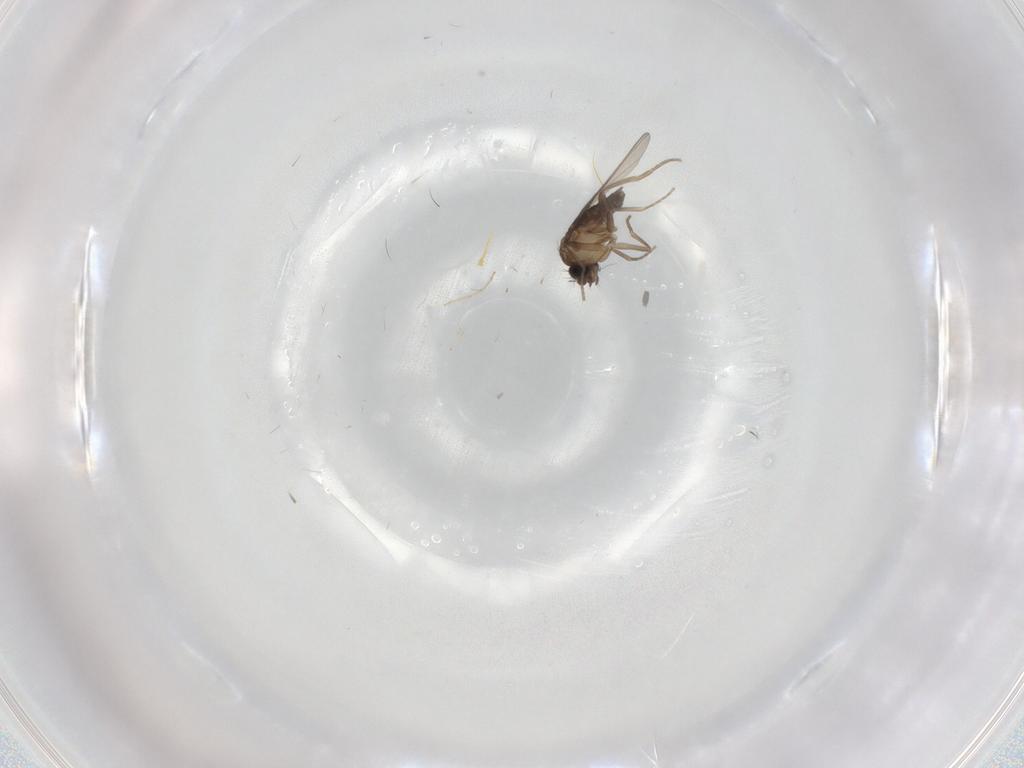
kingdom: Animalia
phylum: Arthropoda
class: Insecta
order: Diptera
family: Chironomidae
